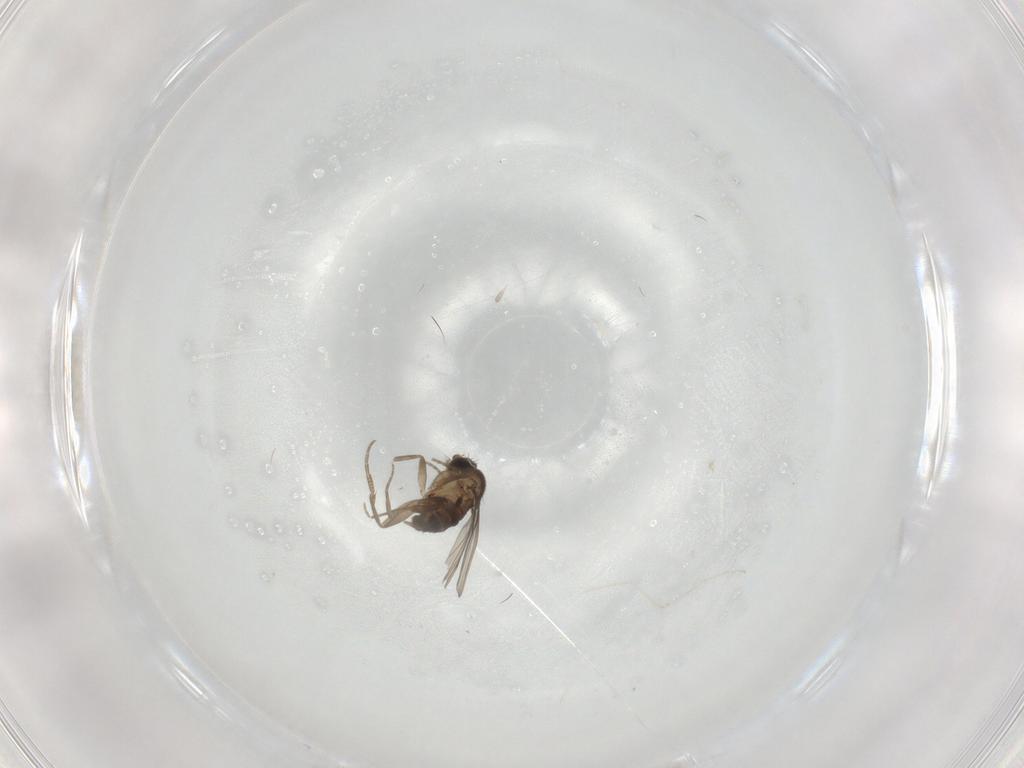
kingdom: Animalia
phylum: Arthropoda
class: Insecta
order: Diptera
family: Phoridae
